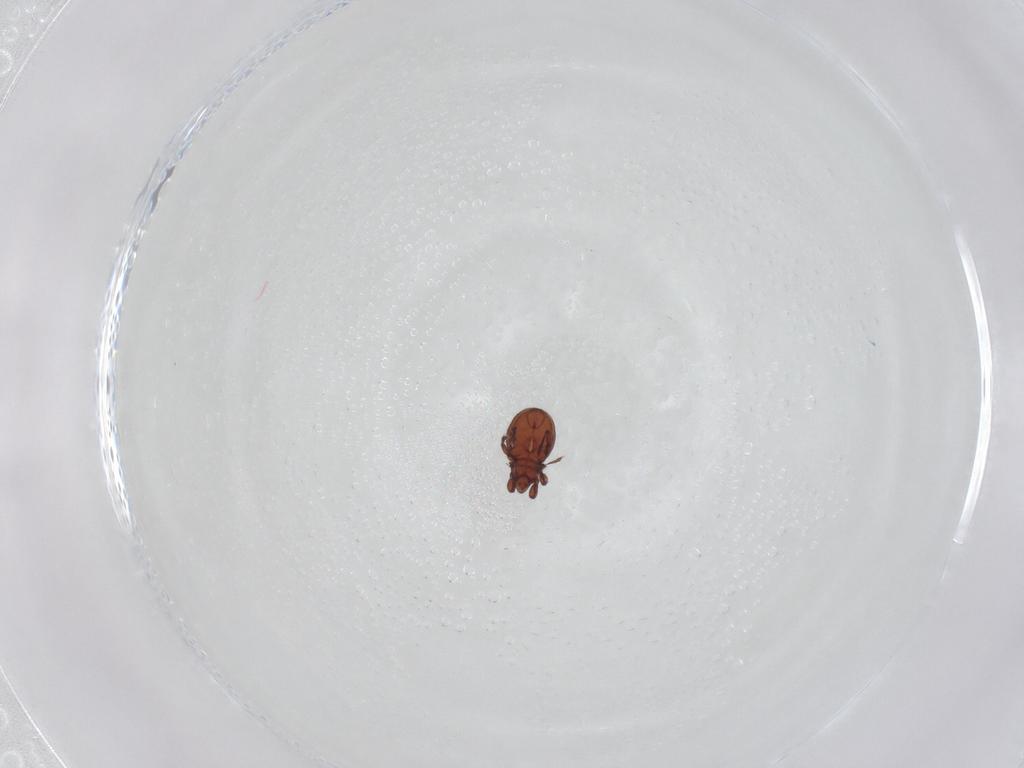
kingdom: Animalia
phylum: Arthropoda
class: Arachnida
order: Sarcoptiformes
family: Eremaeidae
